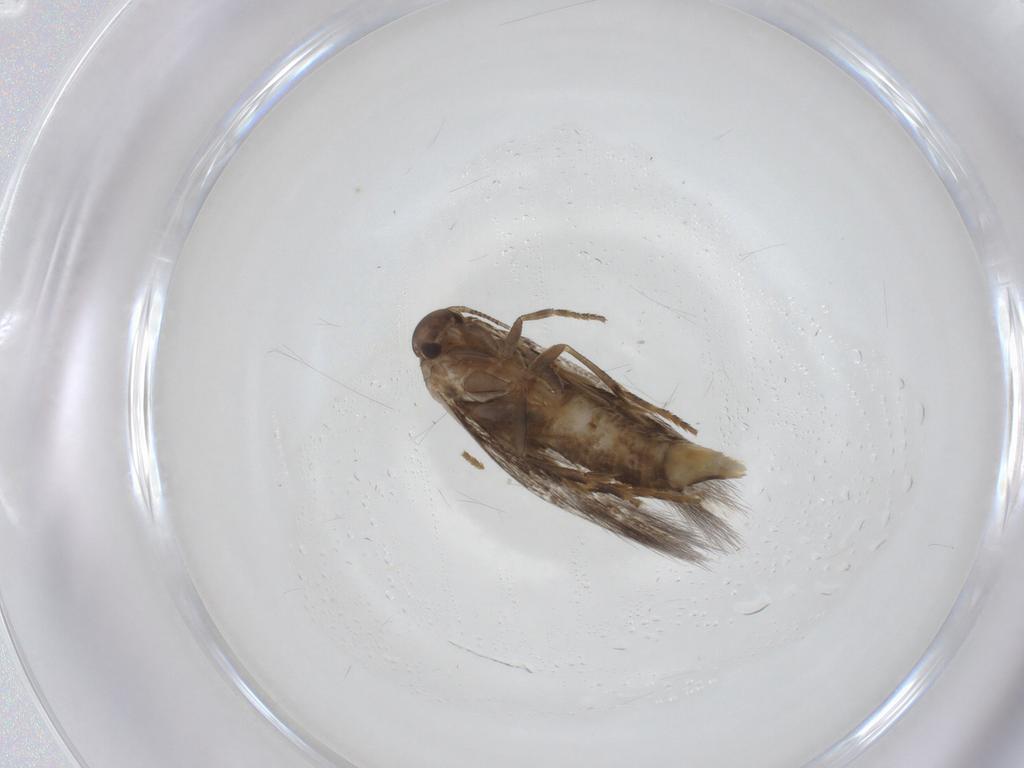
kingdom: Animalia
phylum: Arthropoda
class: Insecta
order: Lepidoptera
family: Elachistidae
